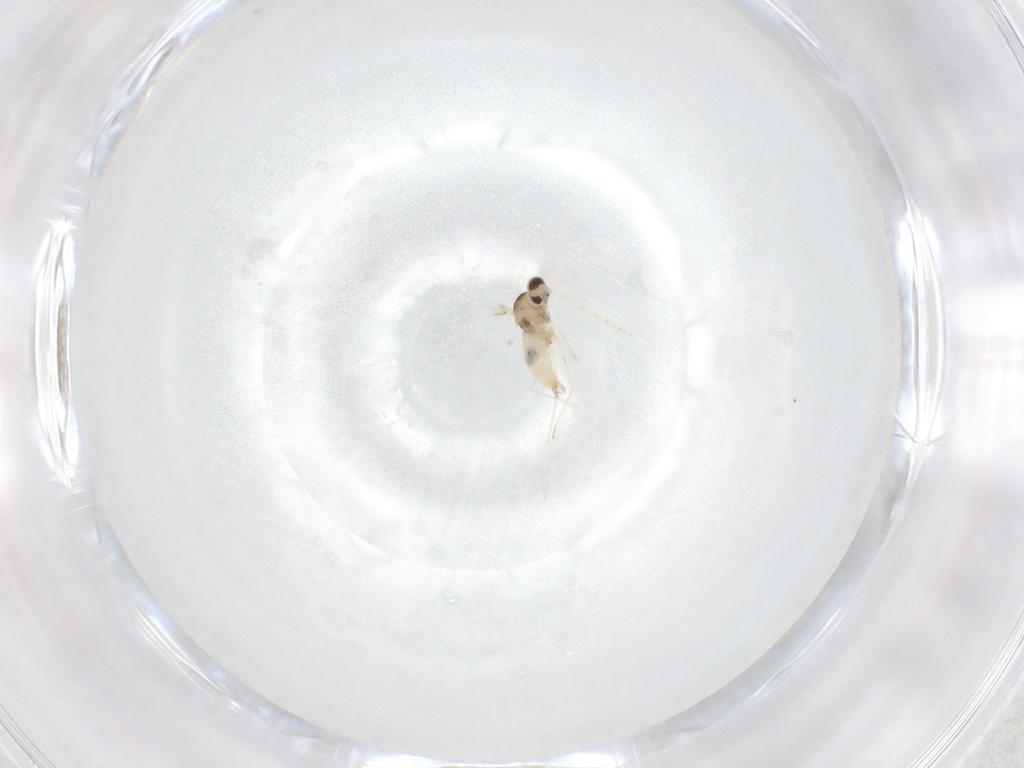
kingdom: Animalia
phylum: Arthropoda
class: Insecta
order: Diptera
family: Cecidomyiidae
